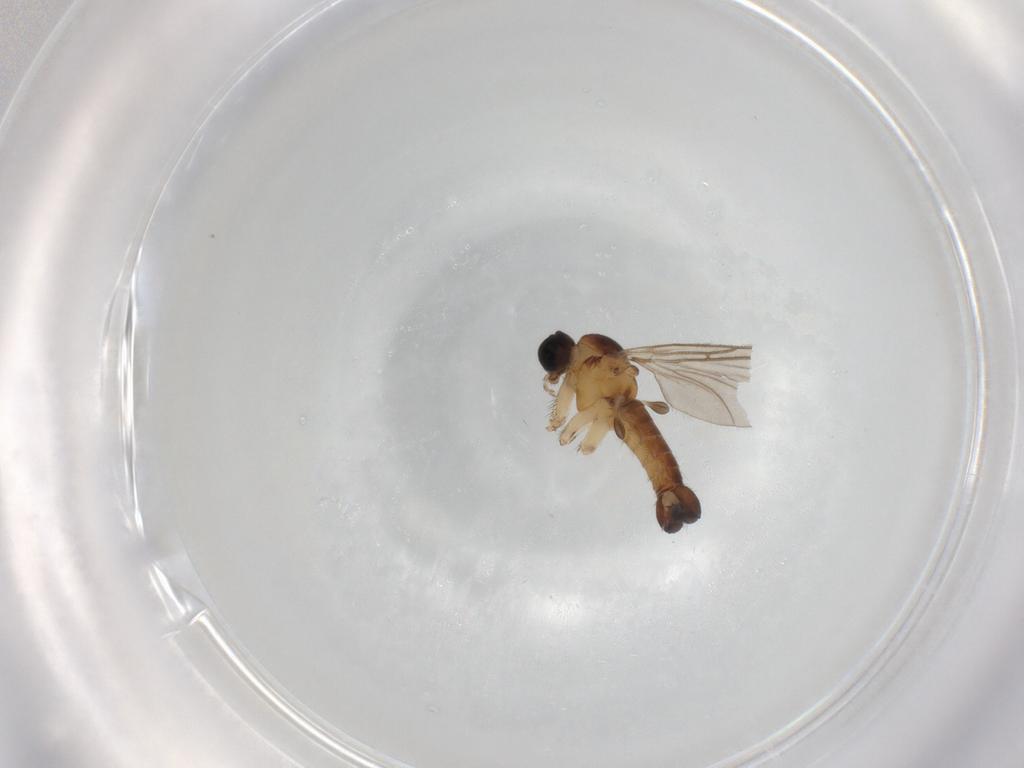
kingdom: Animalia
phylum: Arthropoda
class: Insecta
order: Diptera
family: Sciaridae
